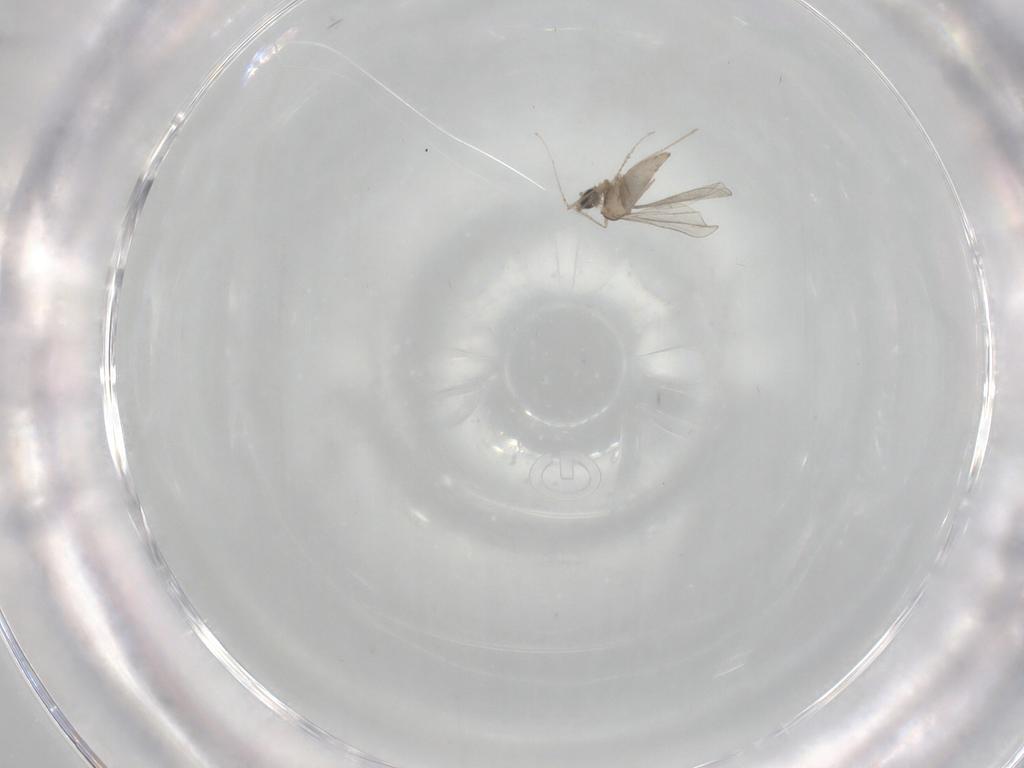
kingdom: Animalia
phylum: Arthropoda
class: Insecta
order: Diptera
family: Cecidomyiidae
